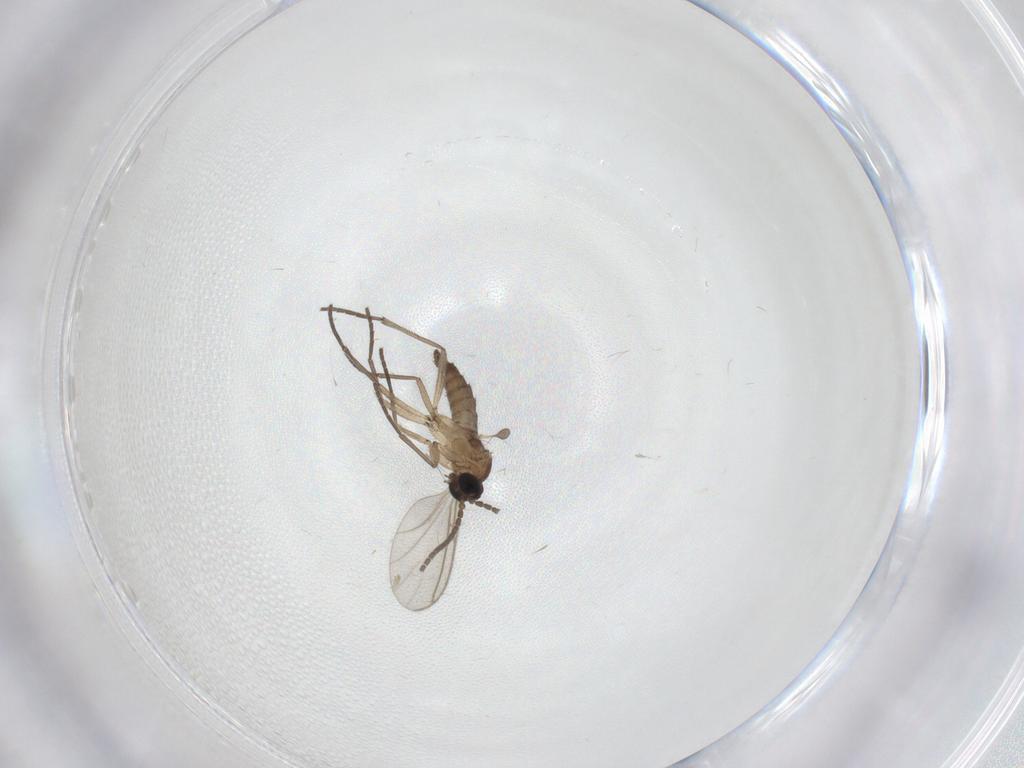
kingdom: Animalia
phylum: Arthropoda
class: Insecta
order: Diptera
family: Sciaridae
